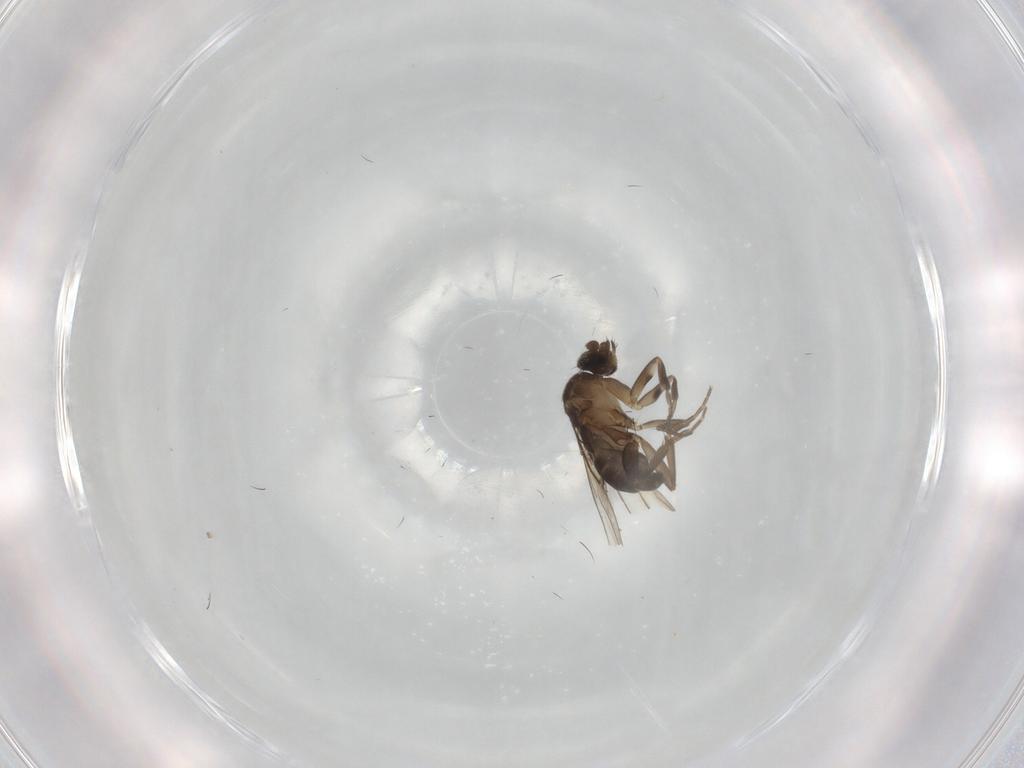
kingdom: Animalia
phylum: Arthropoda
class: Insecta
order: Diptera
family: Phoridae
